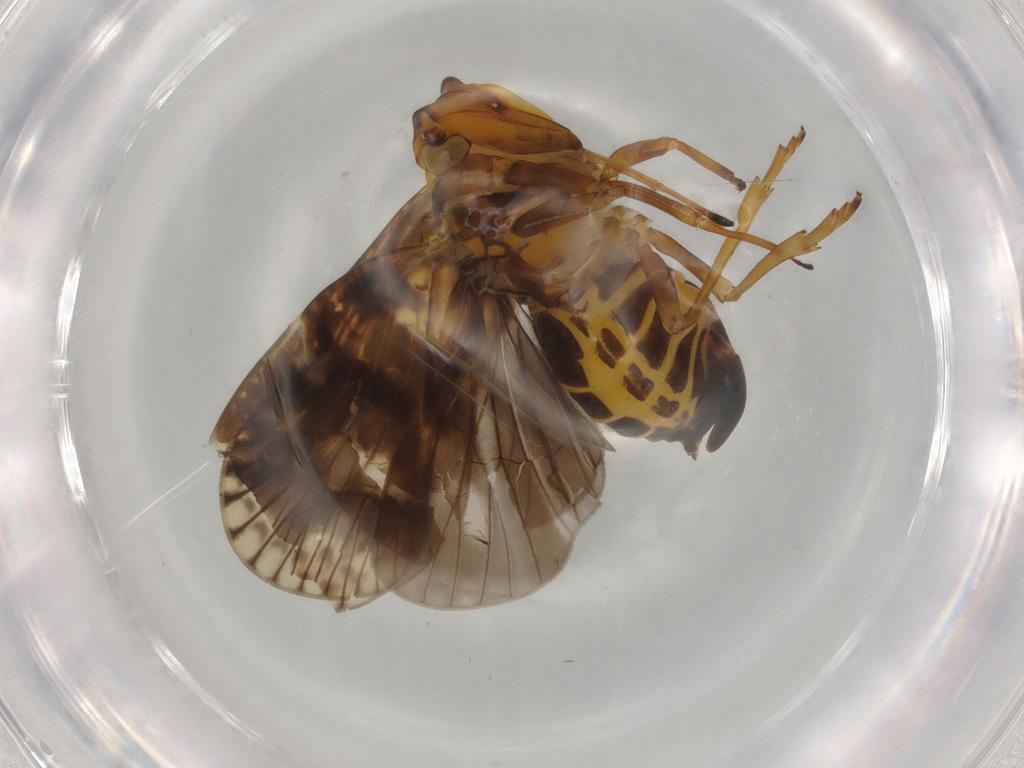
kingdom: Animalia
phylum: Arthropoda
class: Insecta
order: Hemiptera
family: Cixiidae
